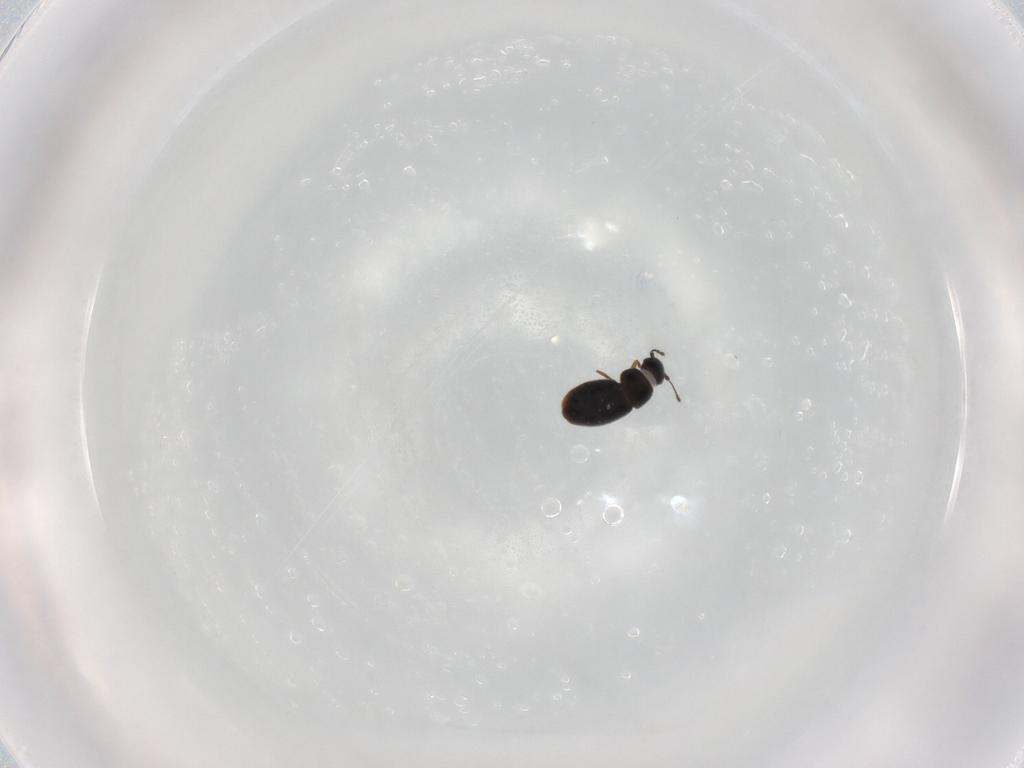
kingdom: Animalia
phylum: Arthropoda
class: Insecta
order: Coleoptera
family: Ptiliidae
